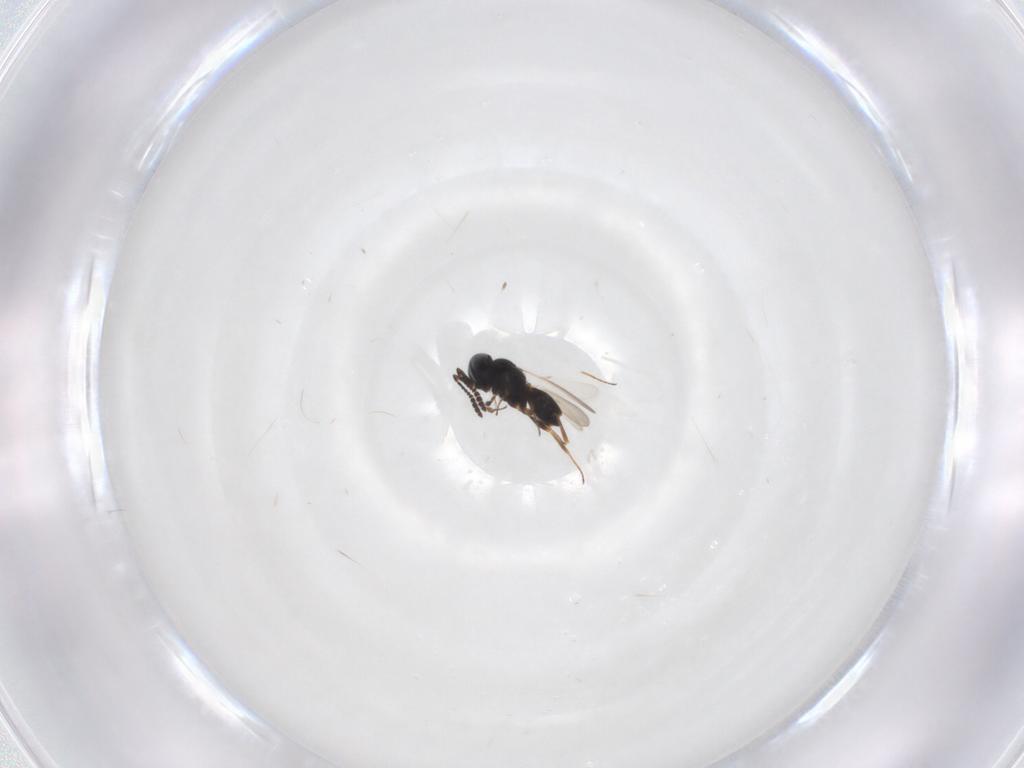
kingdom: Animalia
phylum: Arthropoda
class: Insecta
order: Hymenoptera
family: Scelionidae
